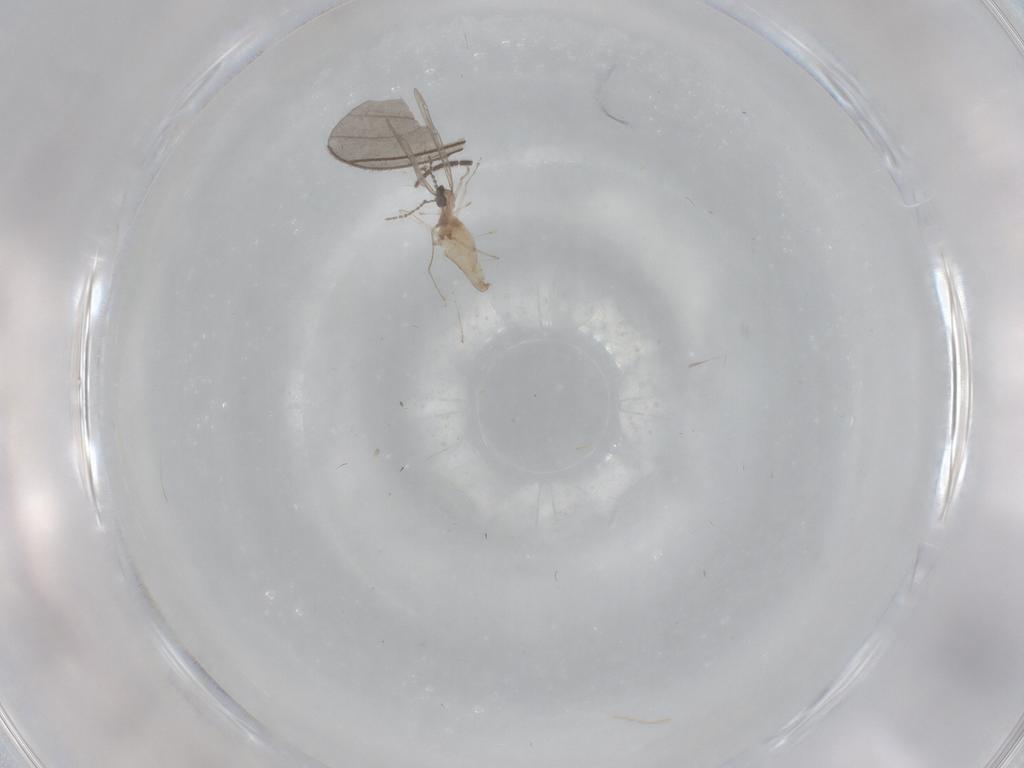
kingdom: Animalia
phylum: Arthropoda
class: Insecta
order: Diptera
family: Cecidomyiidae
